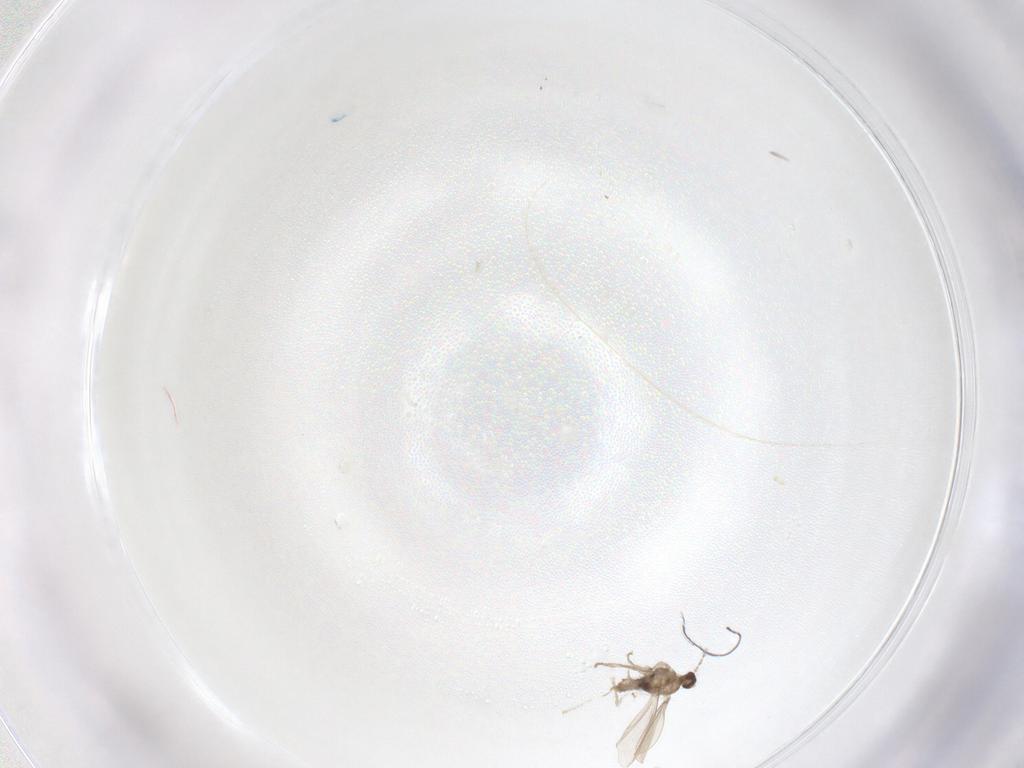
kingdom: Animalia
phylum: Arthropoda
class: Insecta
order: Diptera
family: Cecidomyiidae
